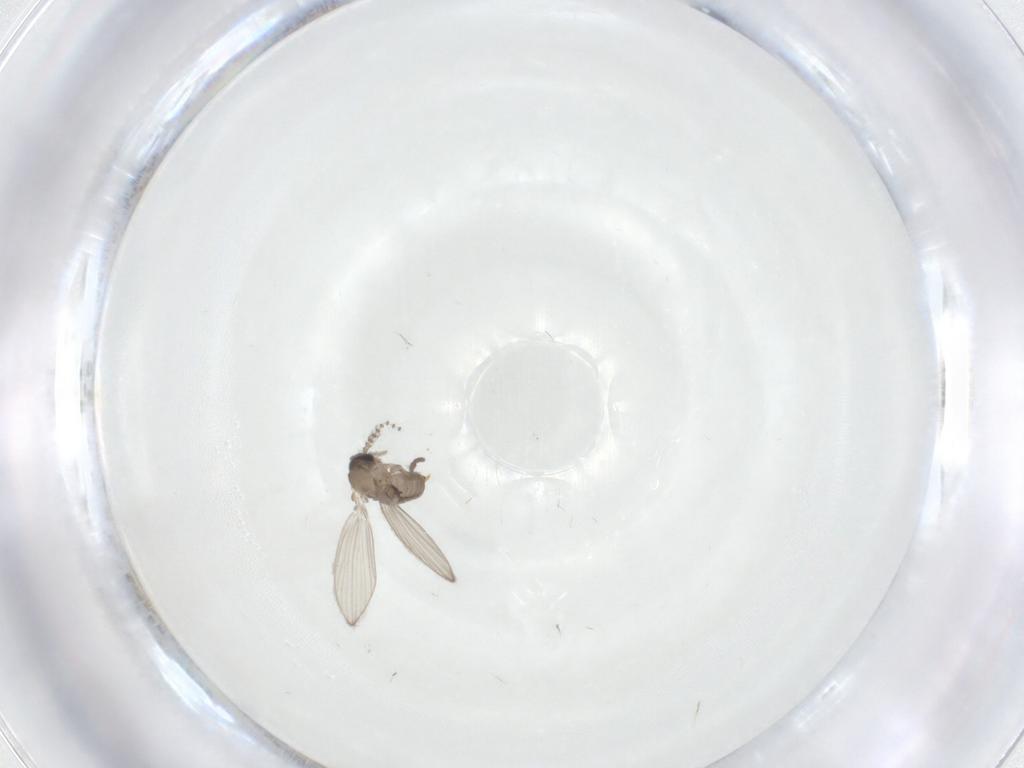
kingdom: Animalia
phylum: Arthropoda
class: Insecta
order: Diptera
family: Psychodidae
